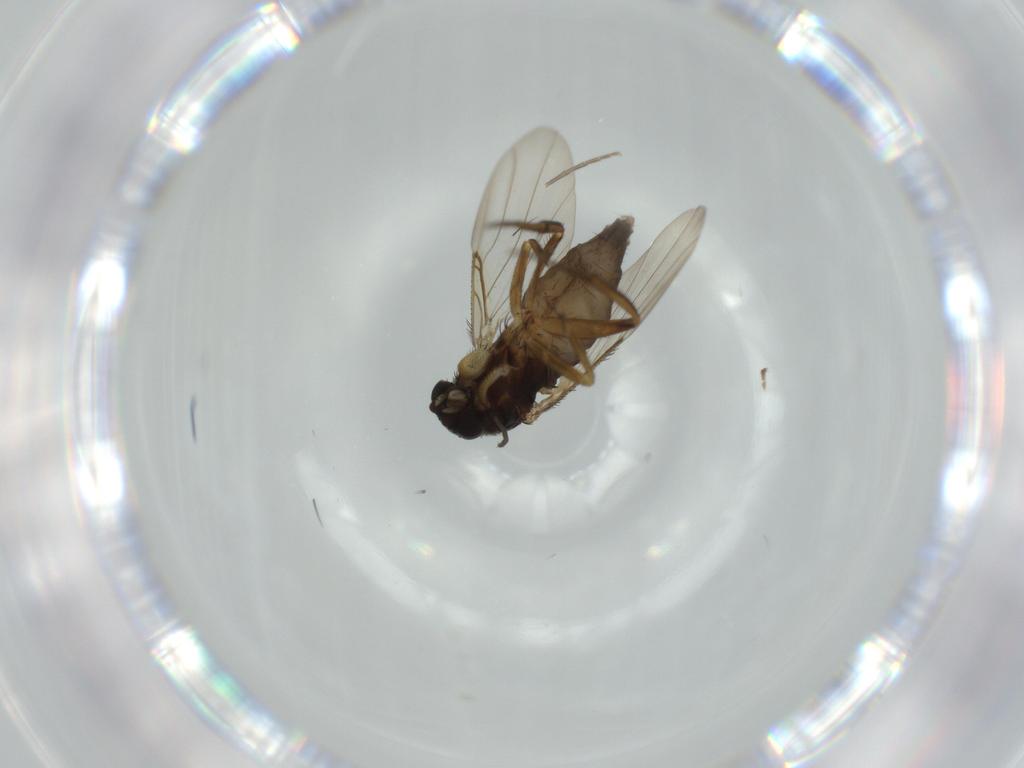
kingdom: Animalia
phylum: Arthropoda
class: Insecta
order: Diptera
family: Phoridae
